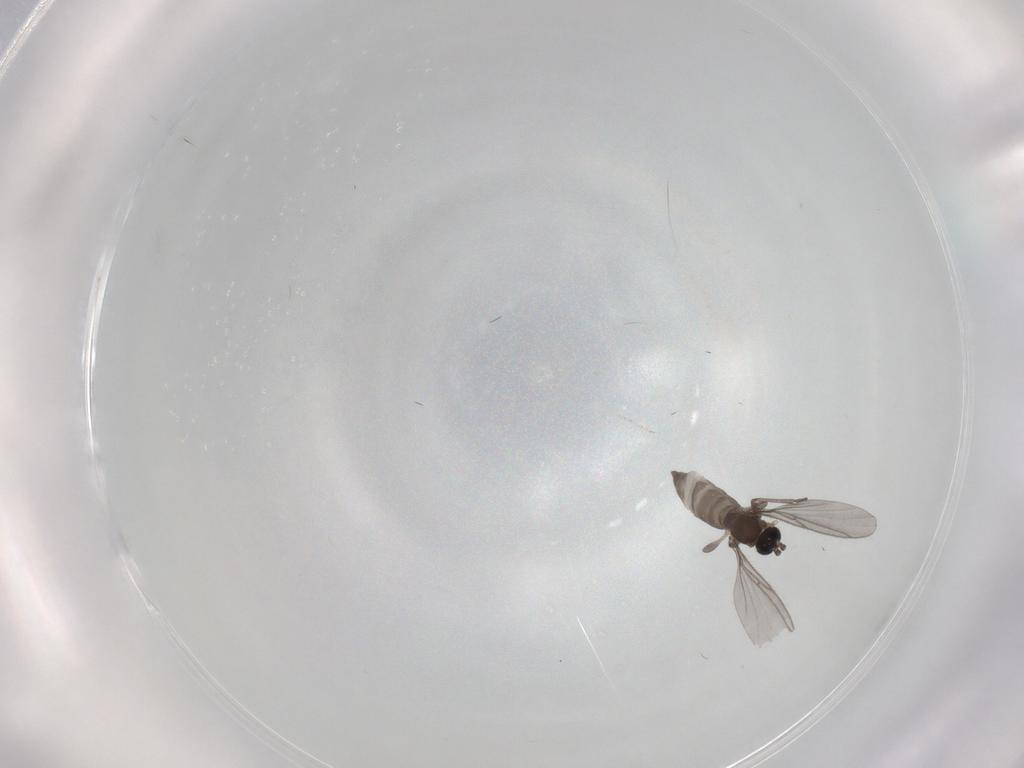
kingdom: Animalia
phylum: Arthropoda
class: Insecta
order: Diptera
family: Sciaridae
